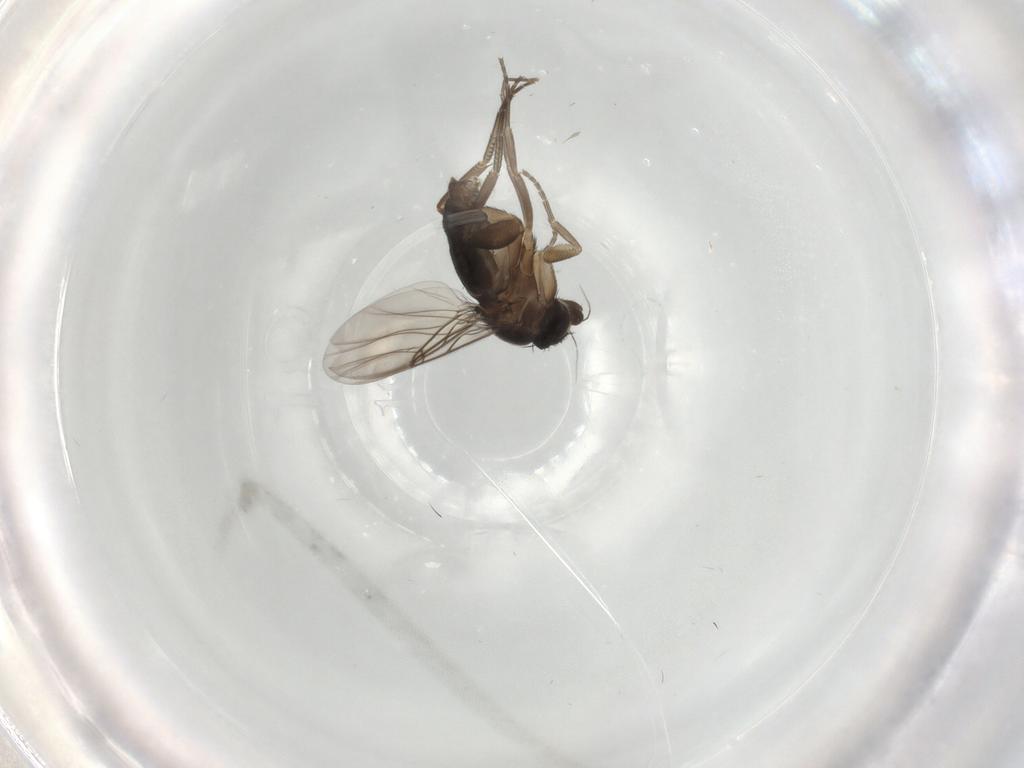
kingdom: Animalia
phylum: Arthropoda
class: Insecta
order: Diptera
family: Phoridae
